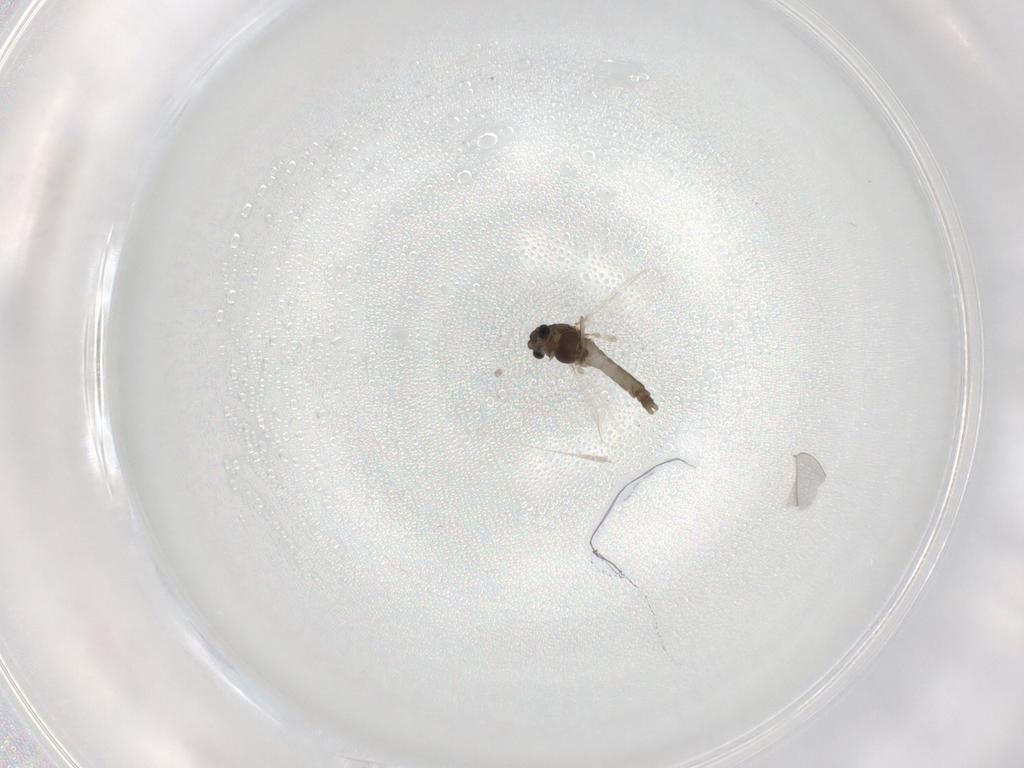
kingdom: Animalia
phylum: Arthropoda
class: Insecta
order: Diptera
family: Chironomidae
